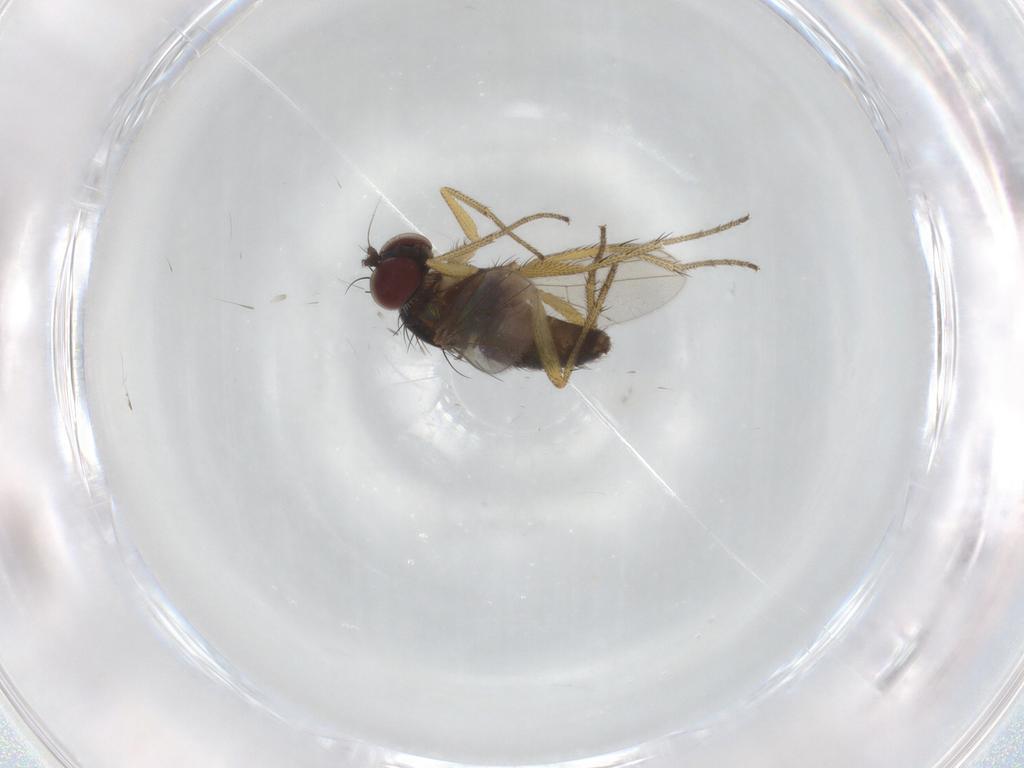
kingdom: Animalia
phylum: Arthropoda
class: Insecta
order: Diptera
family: Dolichopodidae
